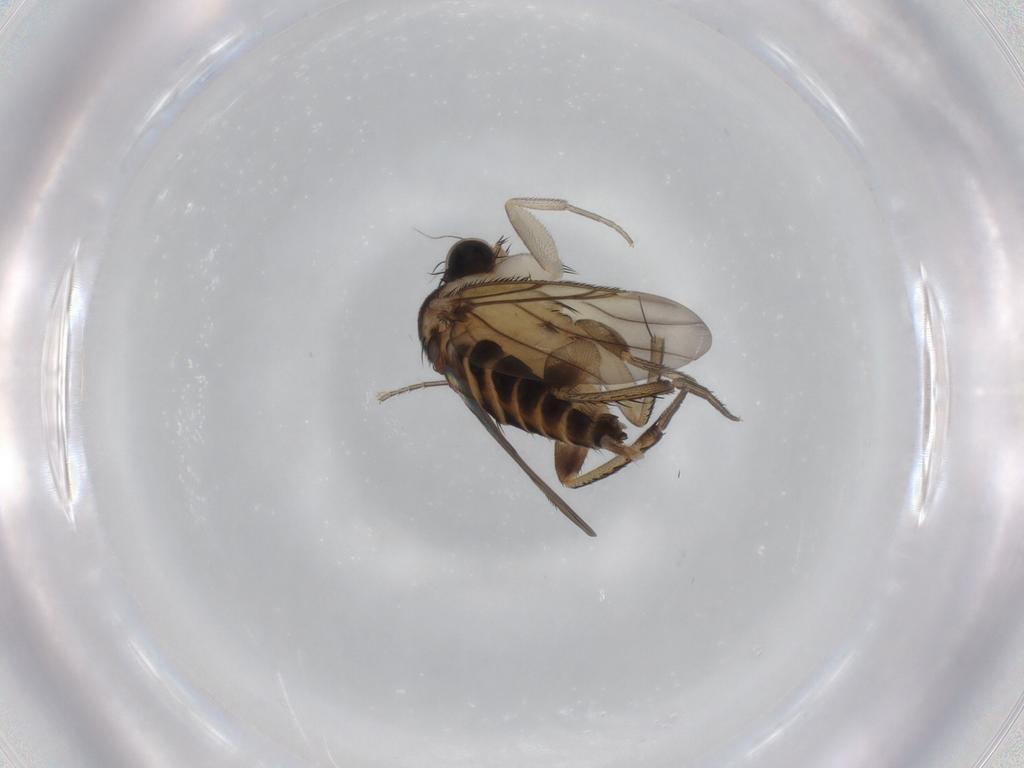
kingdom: Animalia
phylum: Arthropoda
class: Insecta
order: Diptera
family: Phoridae
